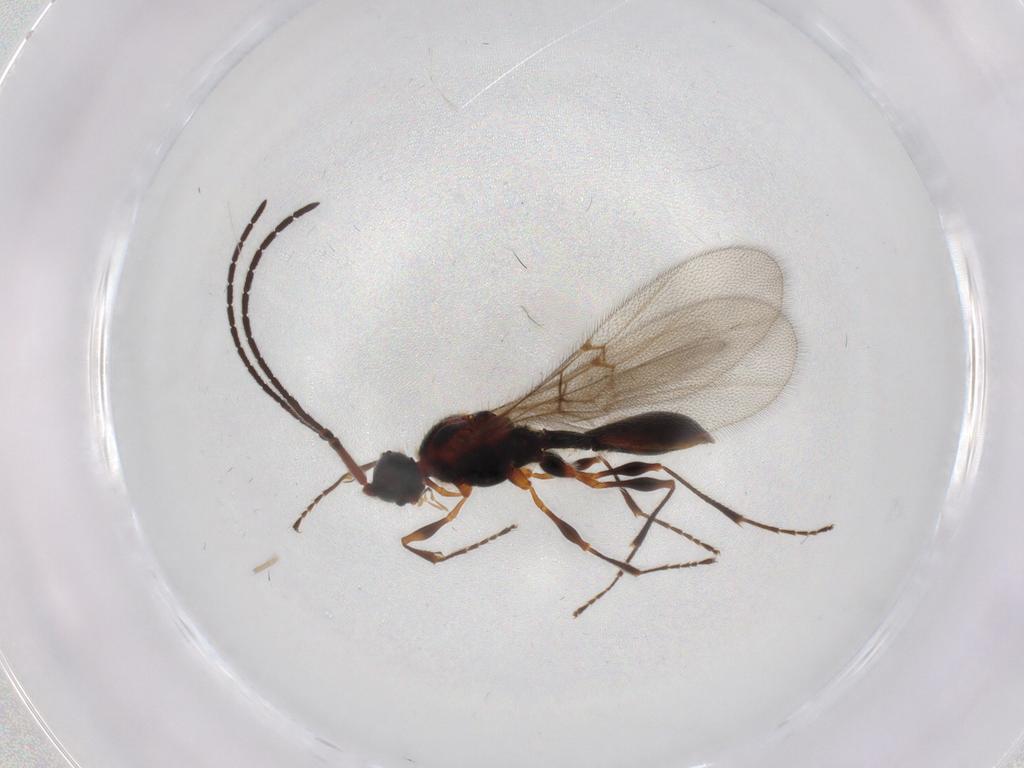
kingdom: Animalia
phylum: Arthropoda
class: Insecta
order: Hymenoptera
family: Diapriidae
